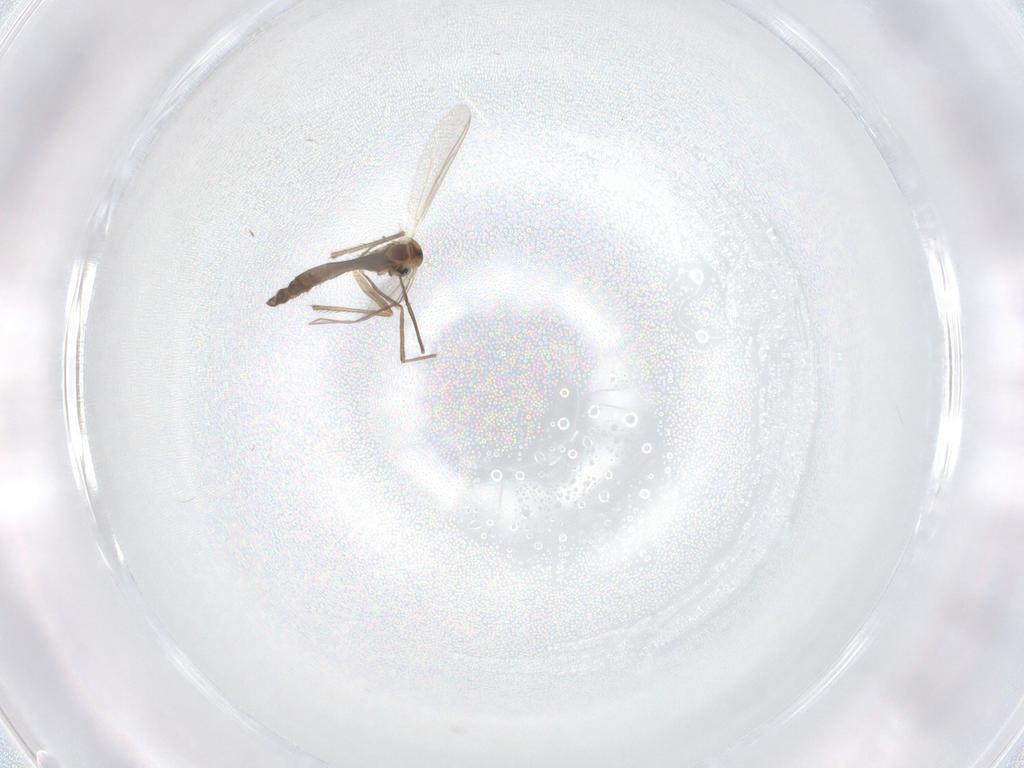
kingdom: Animalia
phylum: Arthropoda
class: Insecta
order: Diptera
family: Chironomidae
